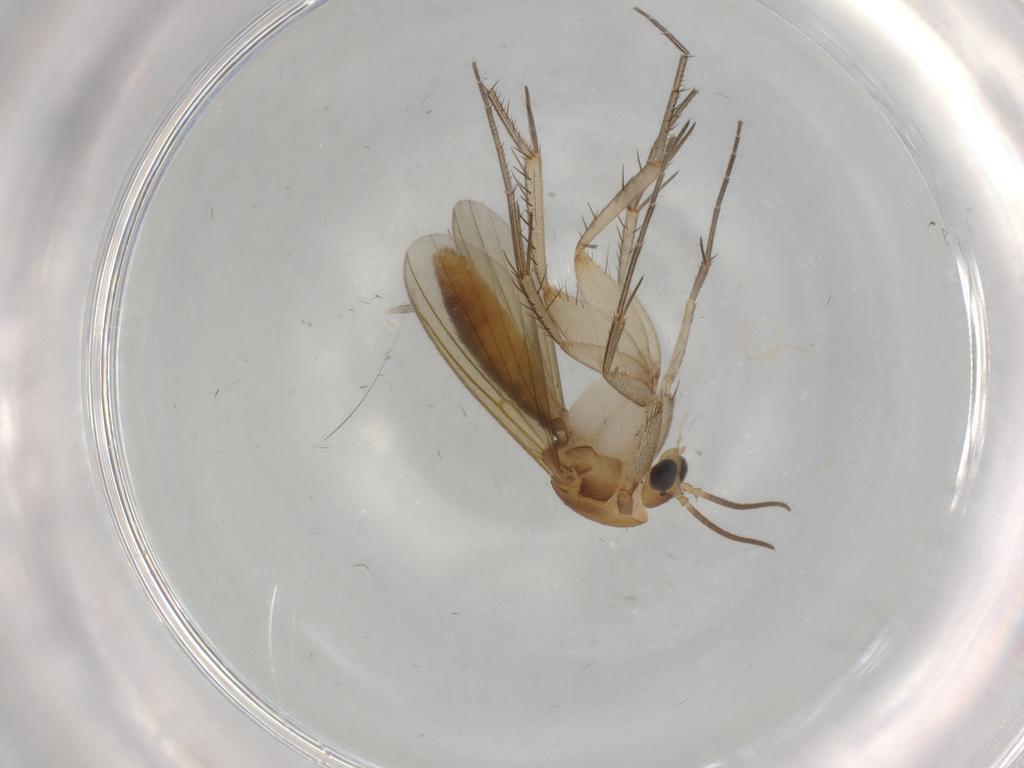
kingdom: Animalia
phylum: Arthropoda
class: Insecta
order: Diptera
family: Mycetophilidae
